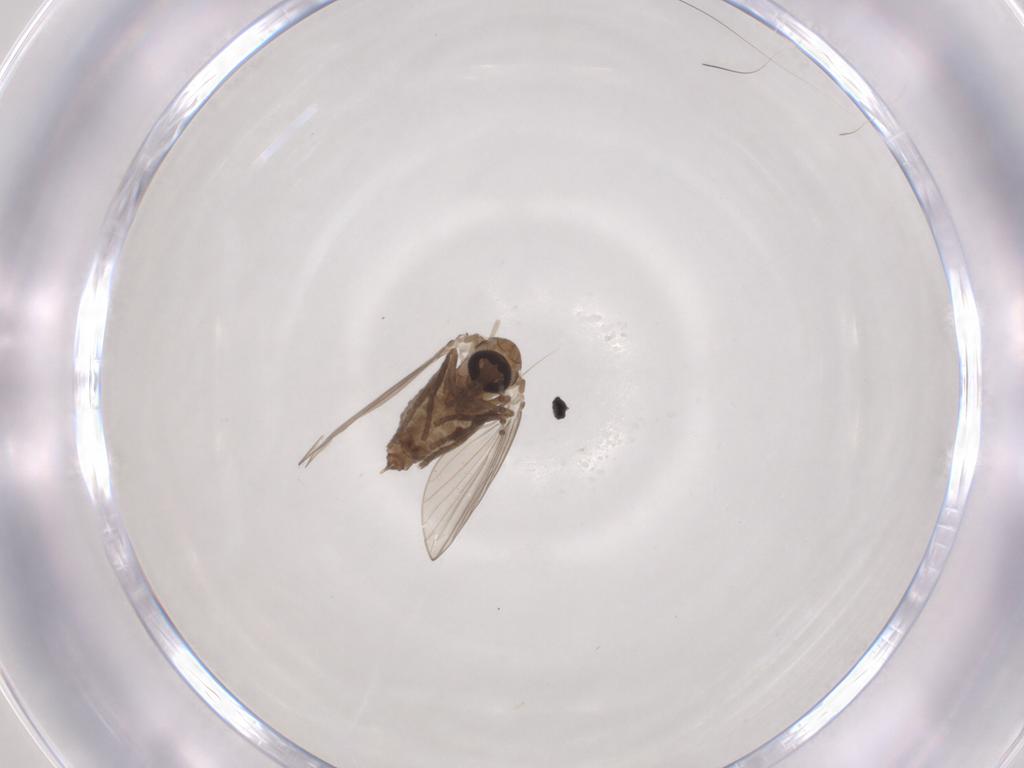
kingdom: Animalia
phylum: Arthropoda
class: Insecta
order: Diptera
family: Psychodidae
